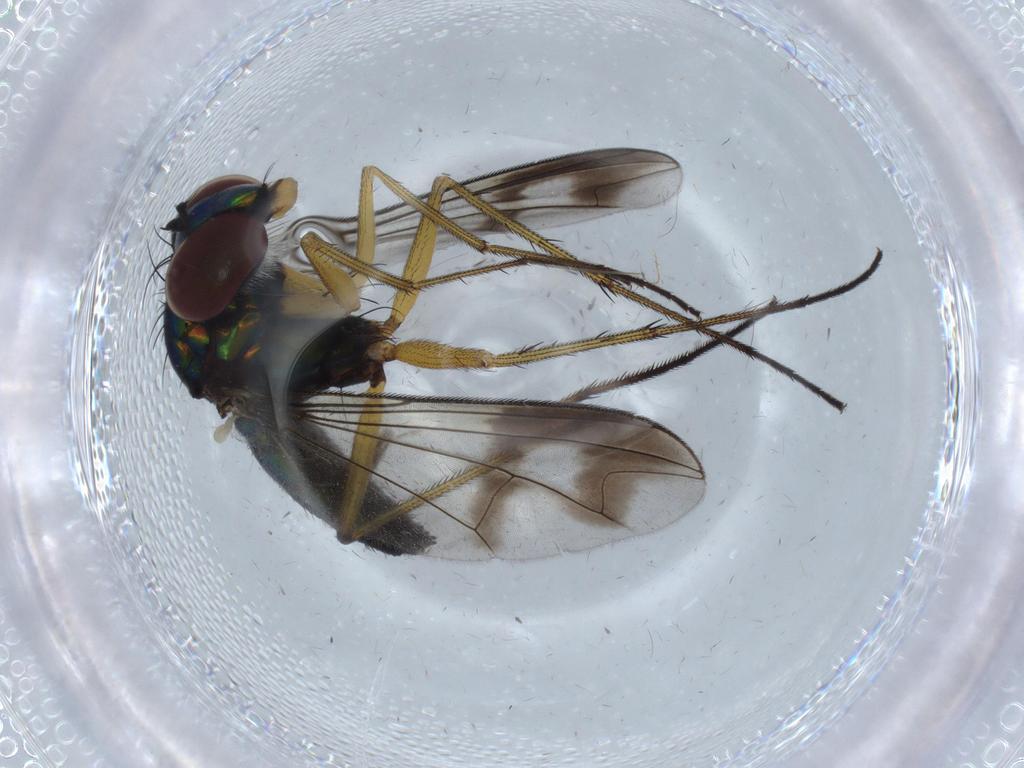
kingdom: Animalia
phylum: Arthropoda
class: Insecta
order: Diptera
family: Dolichopodidae
